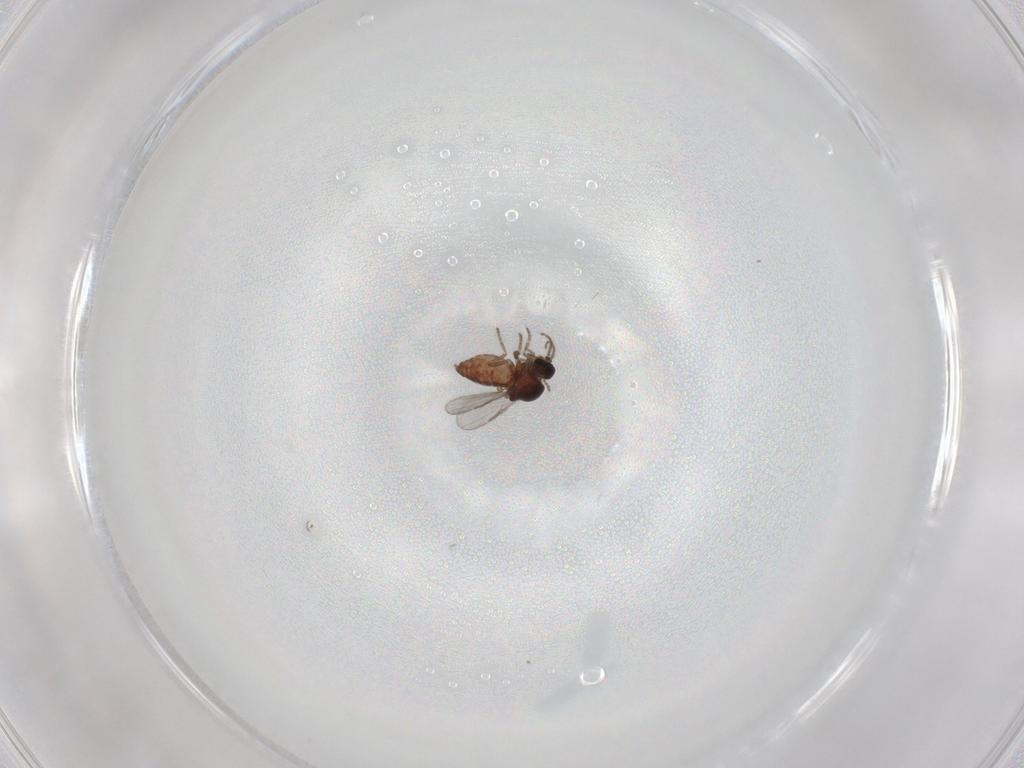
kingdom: Animalia
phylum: Arthropoda
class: Insecta
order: Diptera
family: Ceratopogonidae
